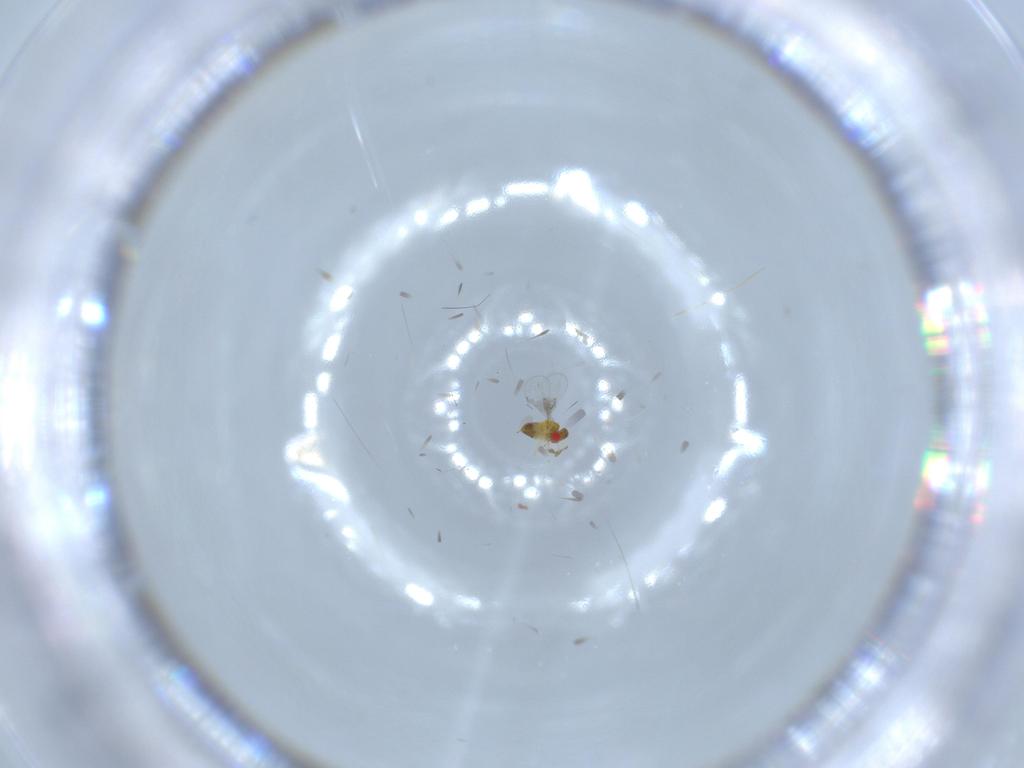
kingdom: Animalia
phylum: Arthropoda
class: Insecta
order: Hymenoptera
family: Trichogrammatidae
